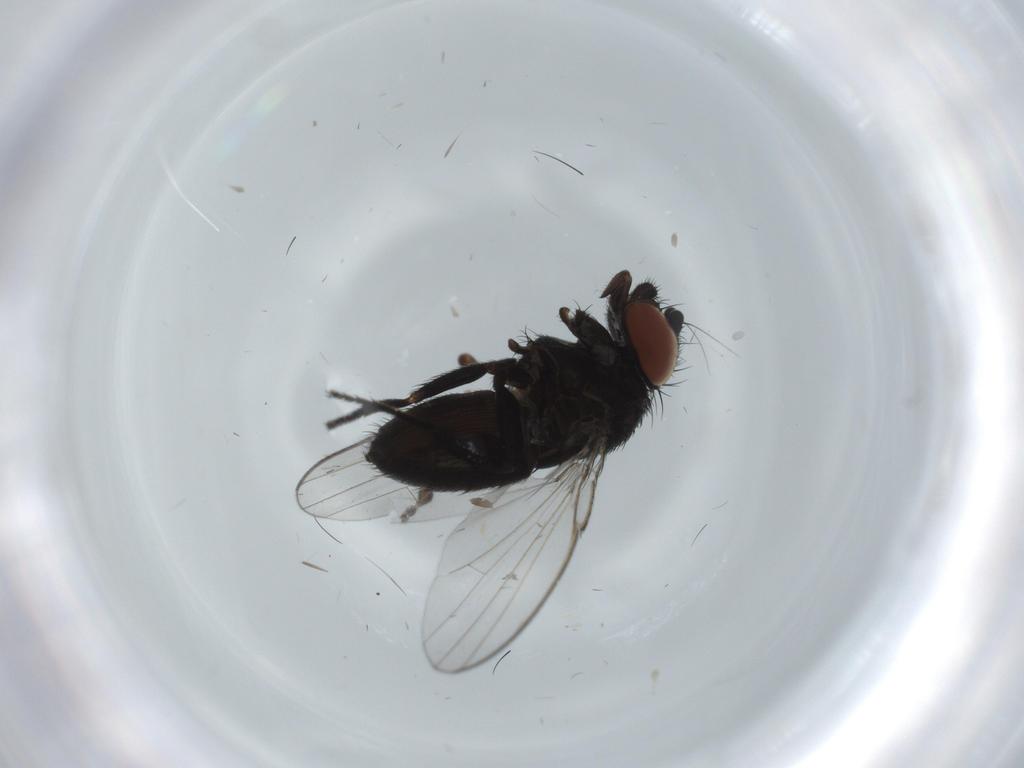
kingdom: Animalia
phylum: Arthropoda
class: Insecta
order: Diptera
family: Milichiidae
